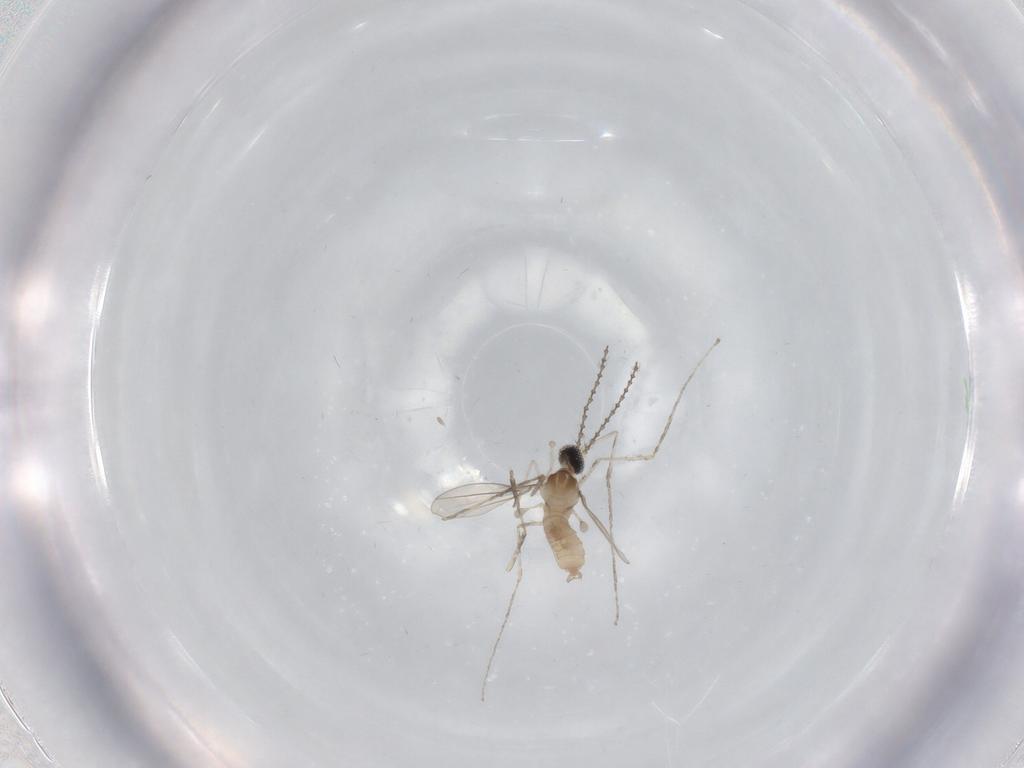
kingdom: Animalia
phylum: Arthropoda
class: Insecta
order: Diptera
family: Cecidomyiidae
